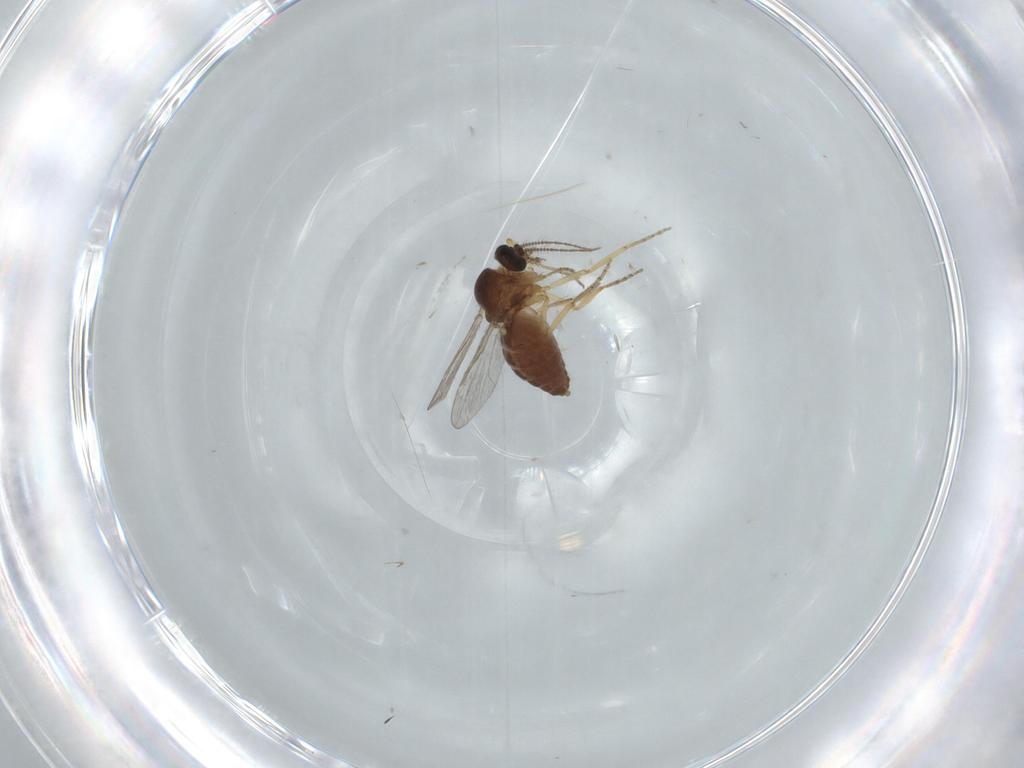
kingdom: Animalia
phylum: Arthropoda
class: Insecta
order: Diptera
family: Ceratopogonidae
